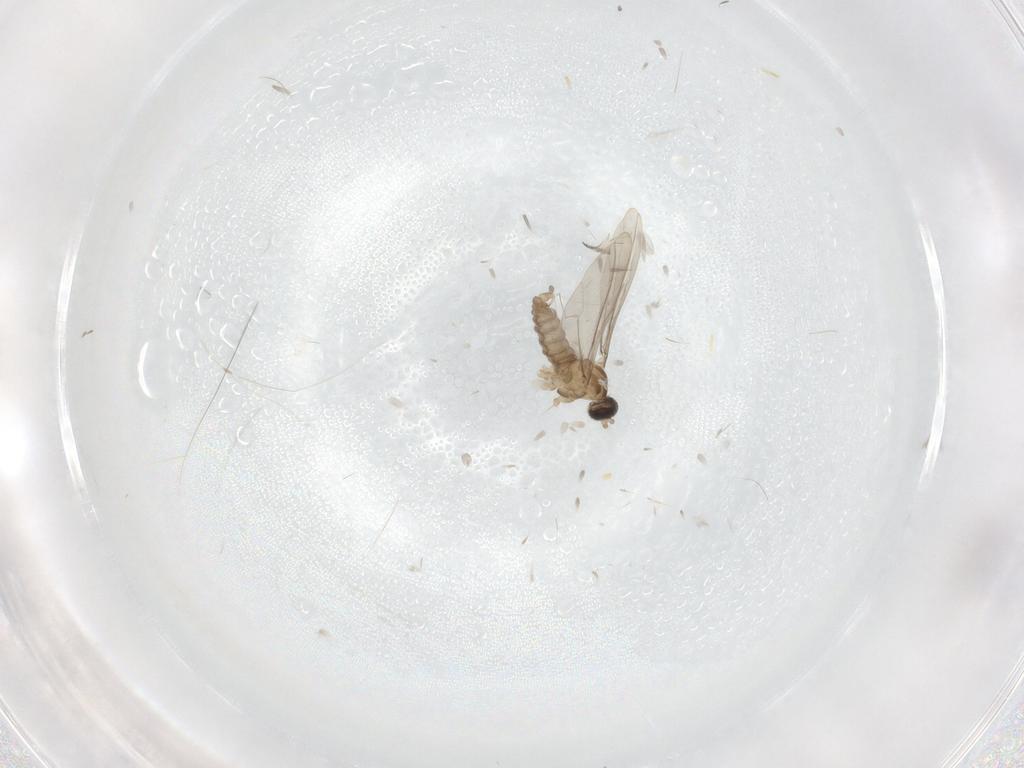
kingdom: Animalia
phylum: Arthropoda
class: Insecta
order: Diptera
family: Cecidomyiidae
